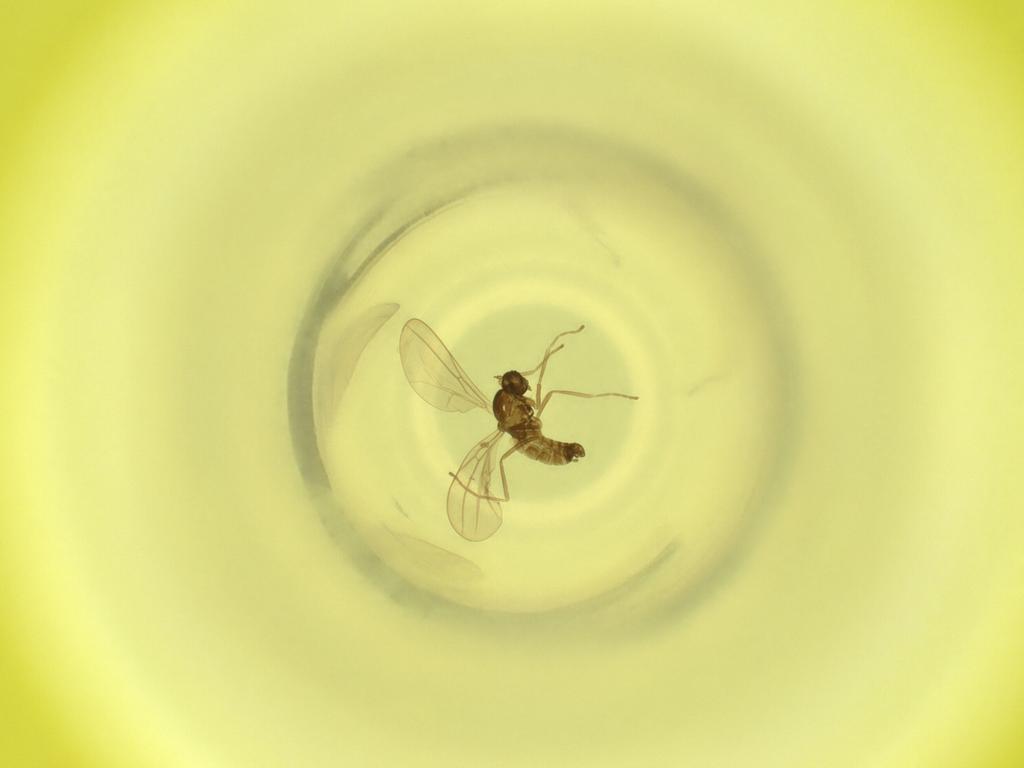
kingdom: Animalia
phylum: Arthropoda
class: Insecta
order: Diptera
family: Cecidomyiidae
